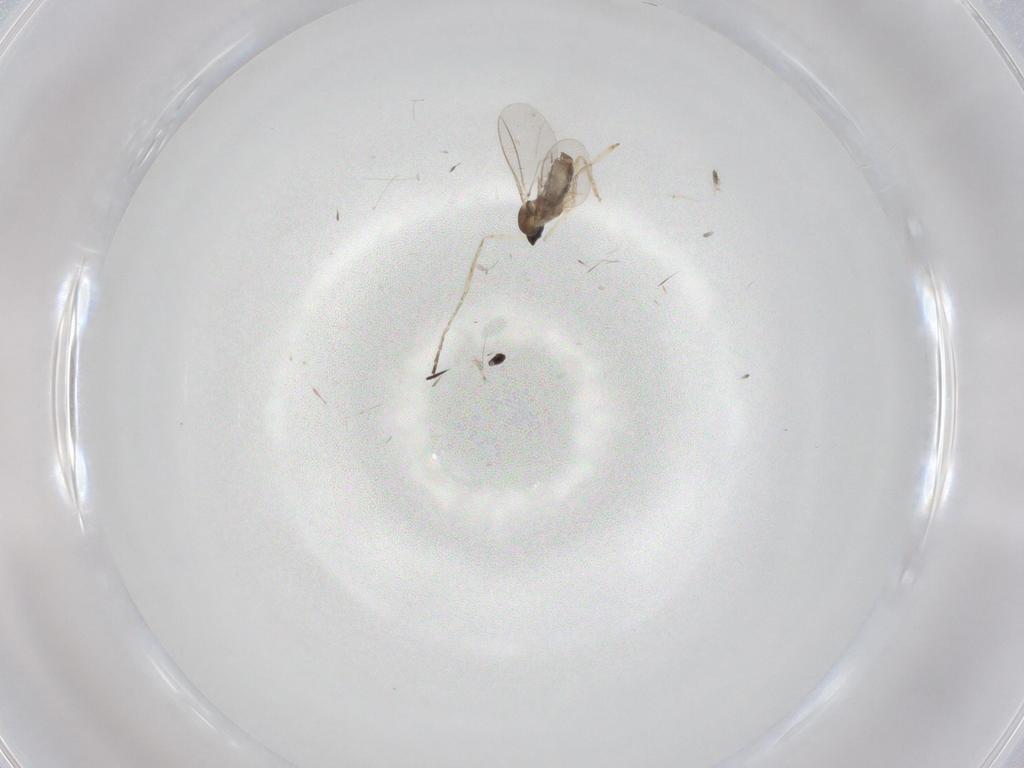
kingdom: Animalia
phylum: Arthropoda
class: Insecta
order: Diptera
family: Cecidomyiidae
